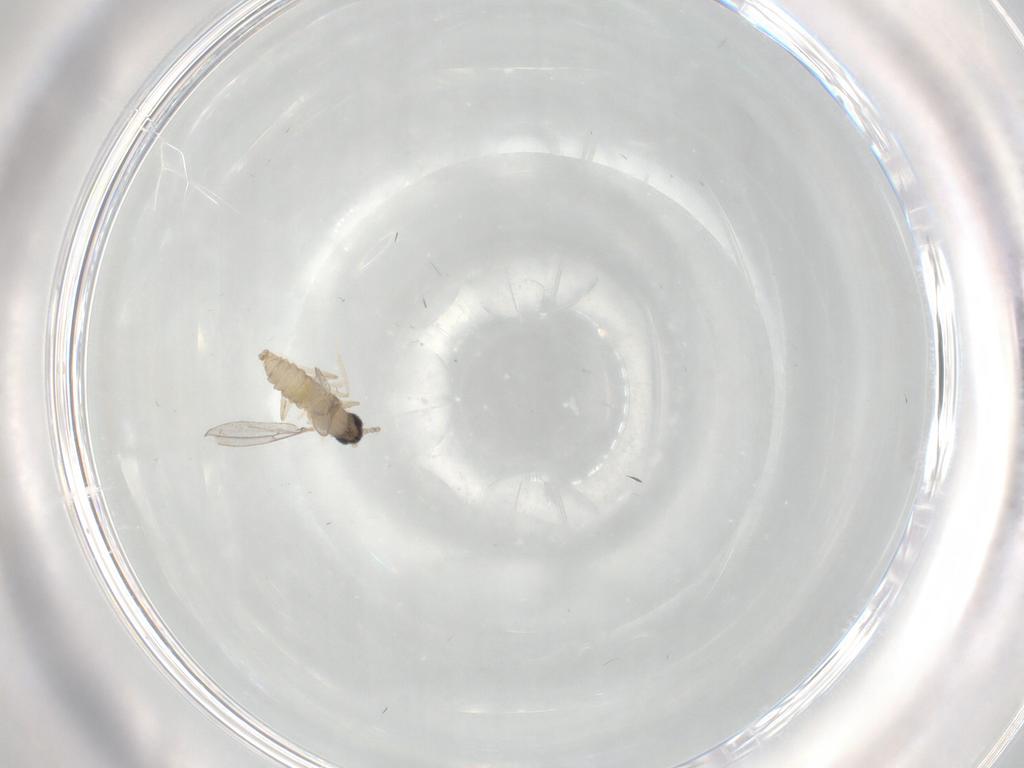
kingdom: Animalia
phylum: Arthropoda
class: Insecta
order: Diptera
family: Cecidomyiidae
